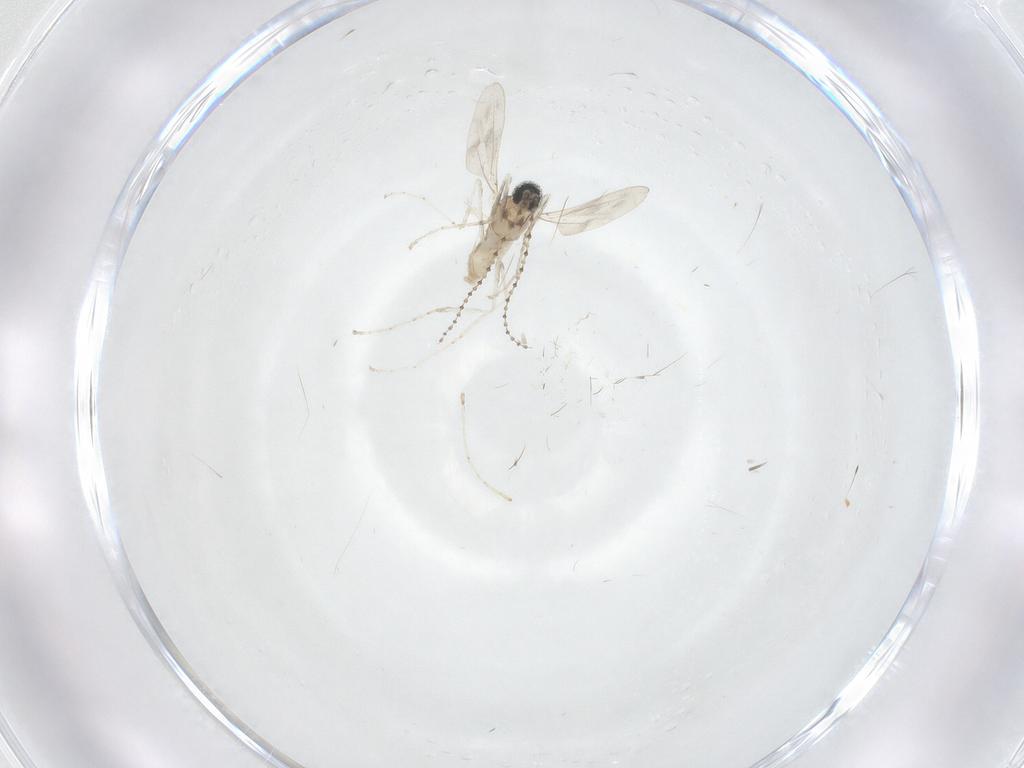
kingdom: Animalia
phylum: Arthropoda
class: Insecta
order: Diptera
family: Cecidomyiidae
